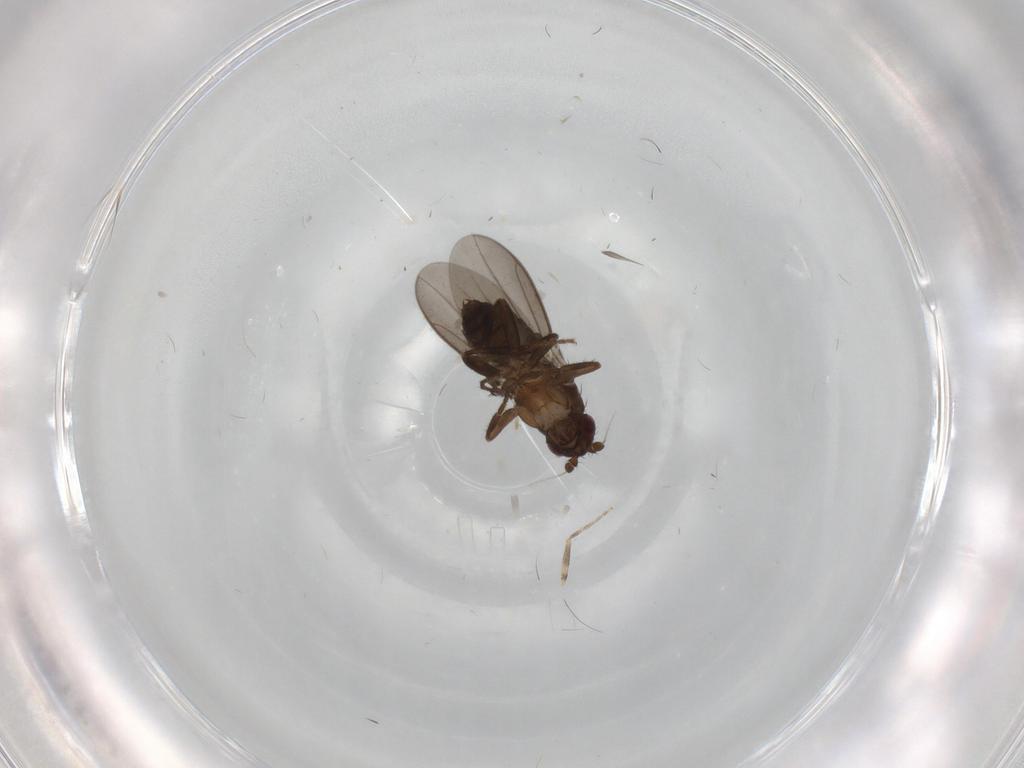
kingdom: Animalia
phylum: Arthropoda
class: Insecta
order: Diptera
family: Sphaeroceridae
